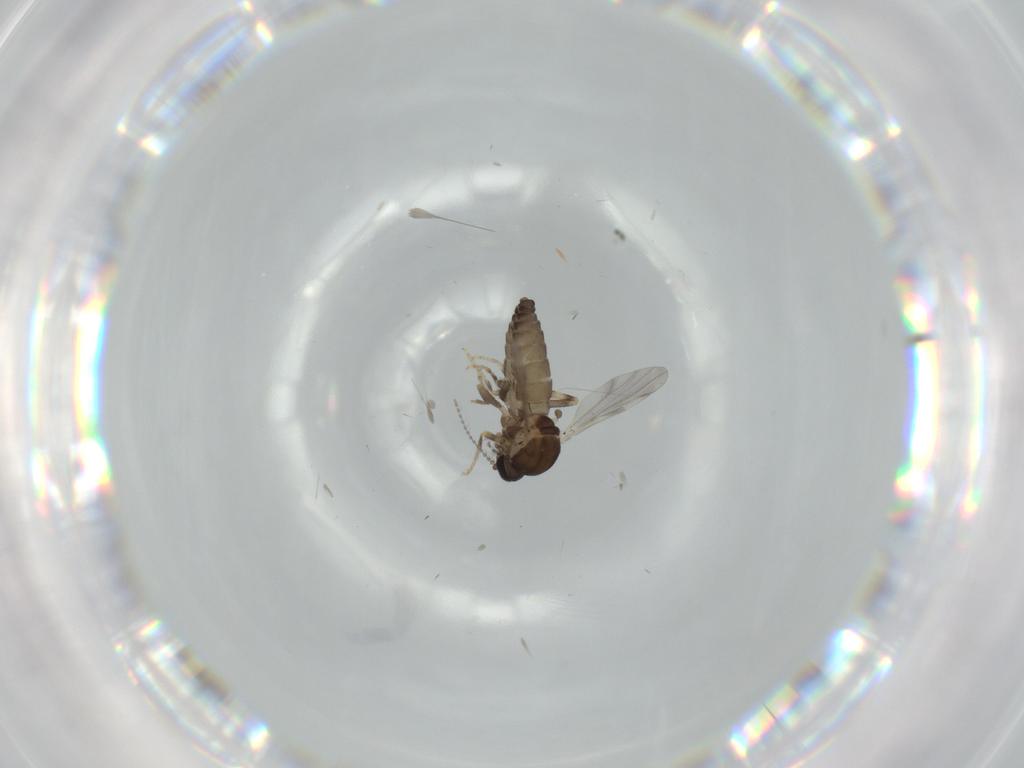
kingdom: Animalia
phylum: Arthropoda
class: Insecta
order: Diptera
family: Ceratopogonidae
